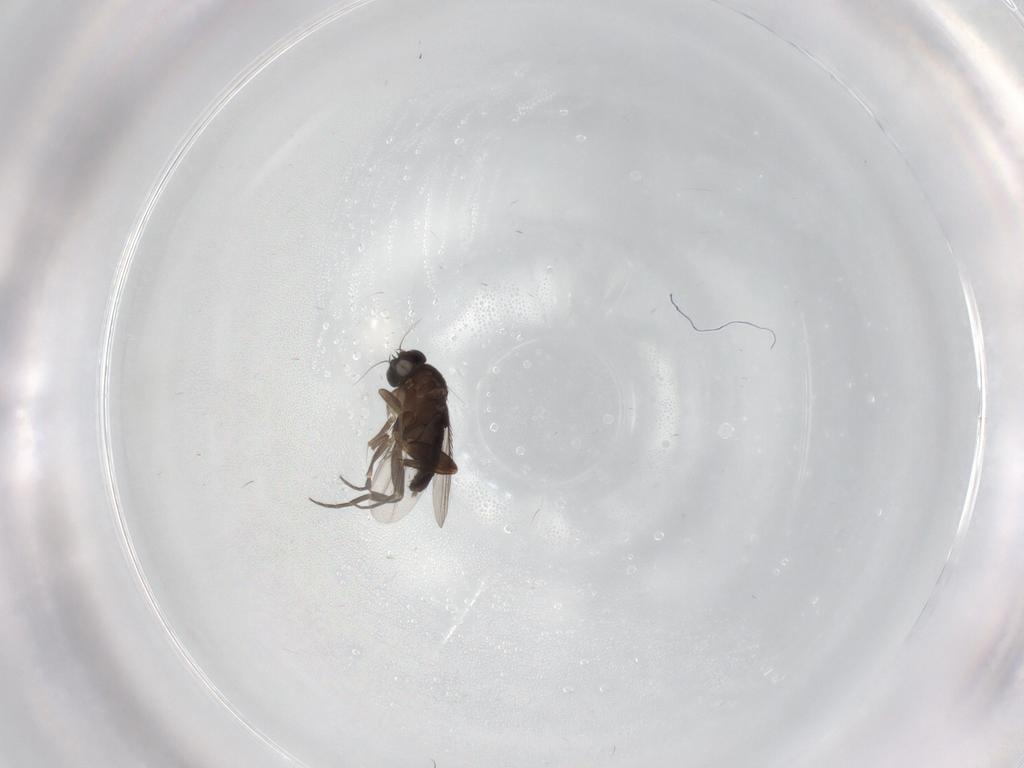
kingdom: Animalia
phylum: Arthropoda
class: Insecta
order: Diptera
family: Phoridae
